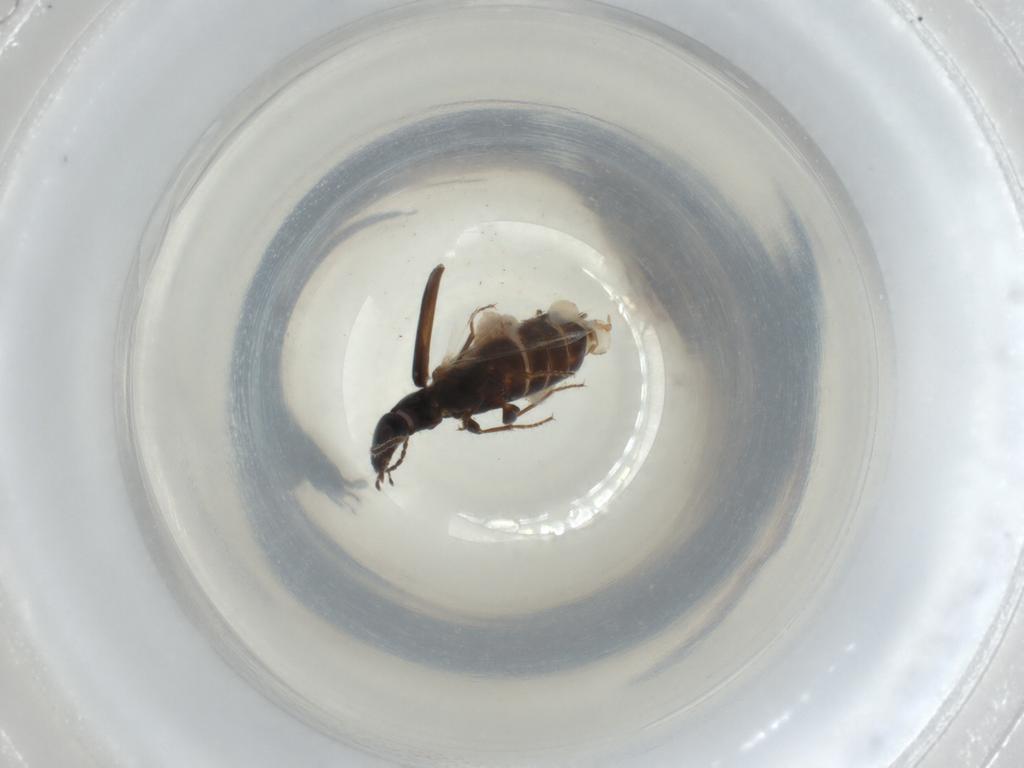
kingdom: Animalia
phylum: Arthropoda
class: Insecta
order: Coleoptera
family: Carabidae
